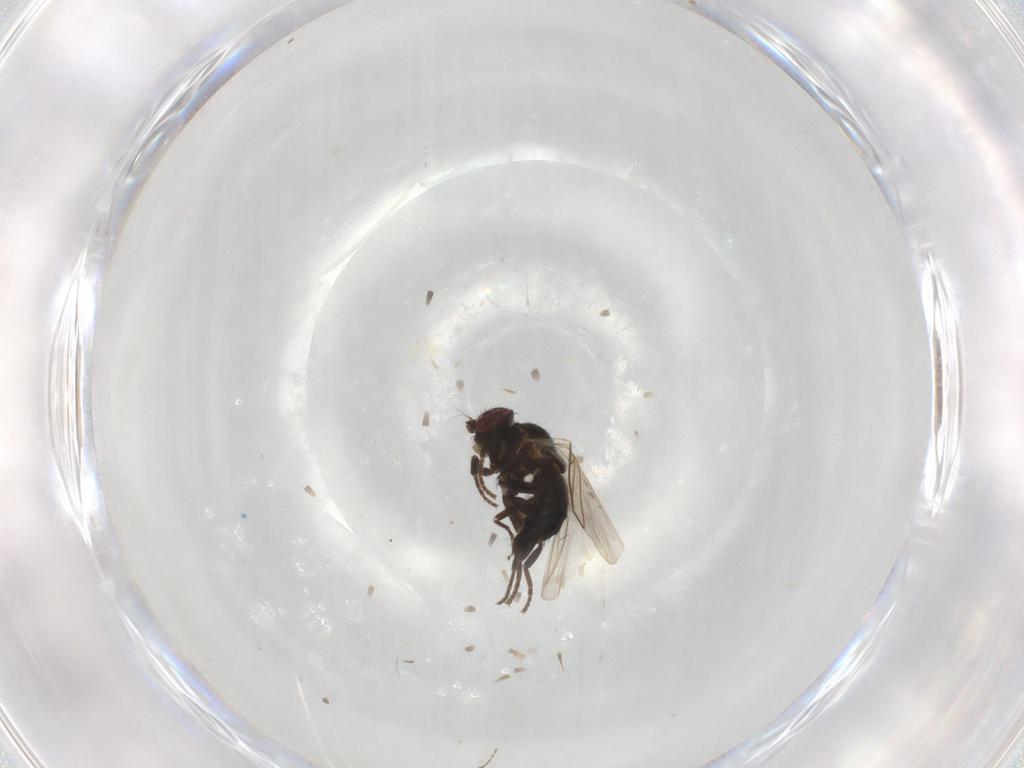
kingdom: Animalia
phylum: Arthropoda
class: Insecta
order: Diptera
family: Agromyzidae
